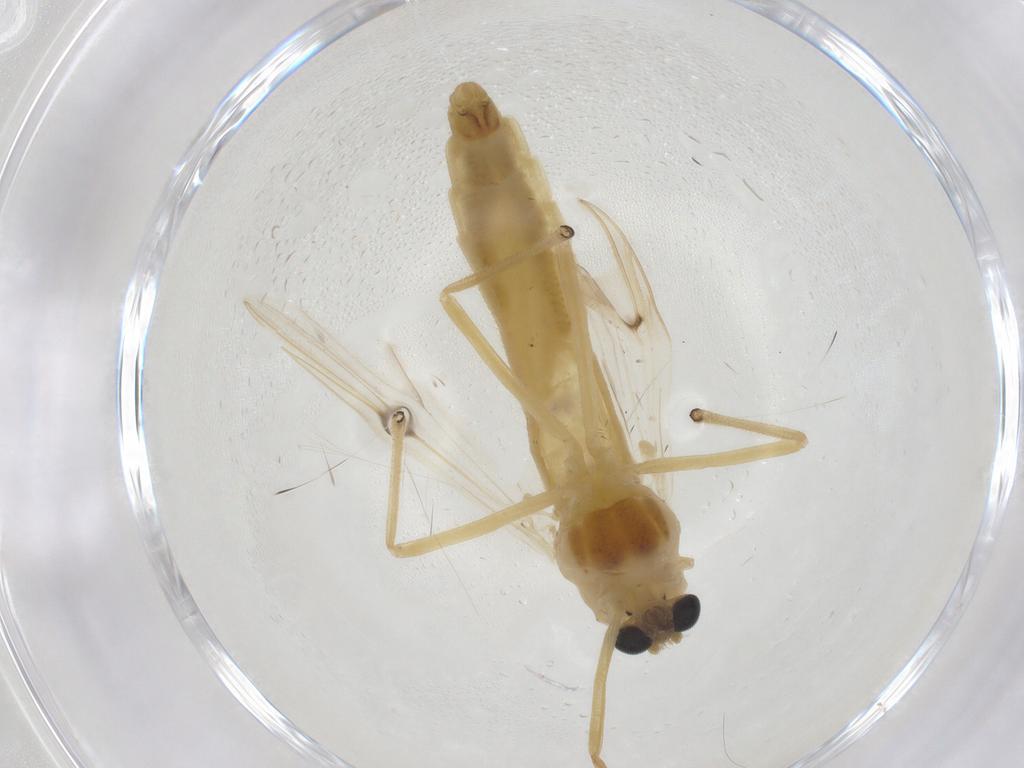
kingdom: Animalia
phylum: Arthropoda
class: Insecta
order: Diptera
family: Chironomidae
